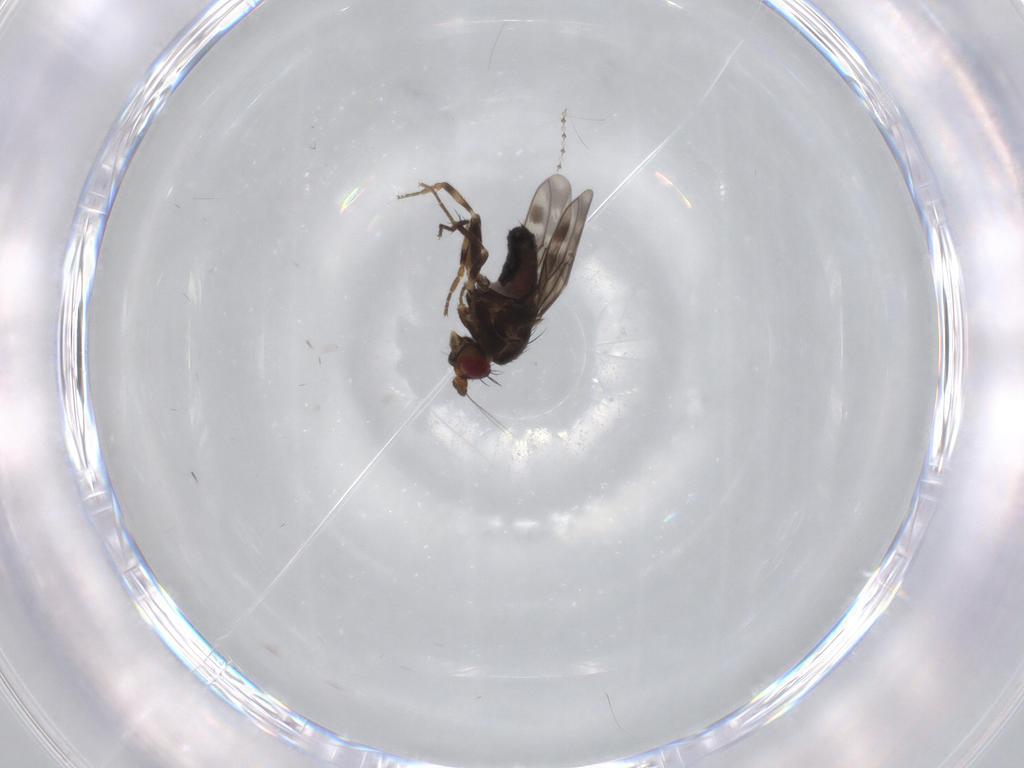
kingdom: Animalia
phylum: Arthropoda
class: Insecta
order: Diptera
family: Sphaeroceridae
